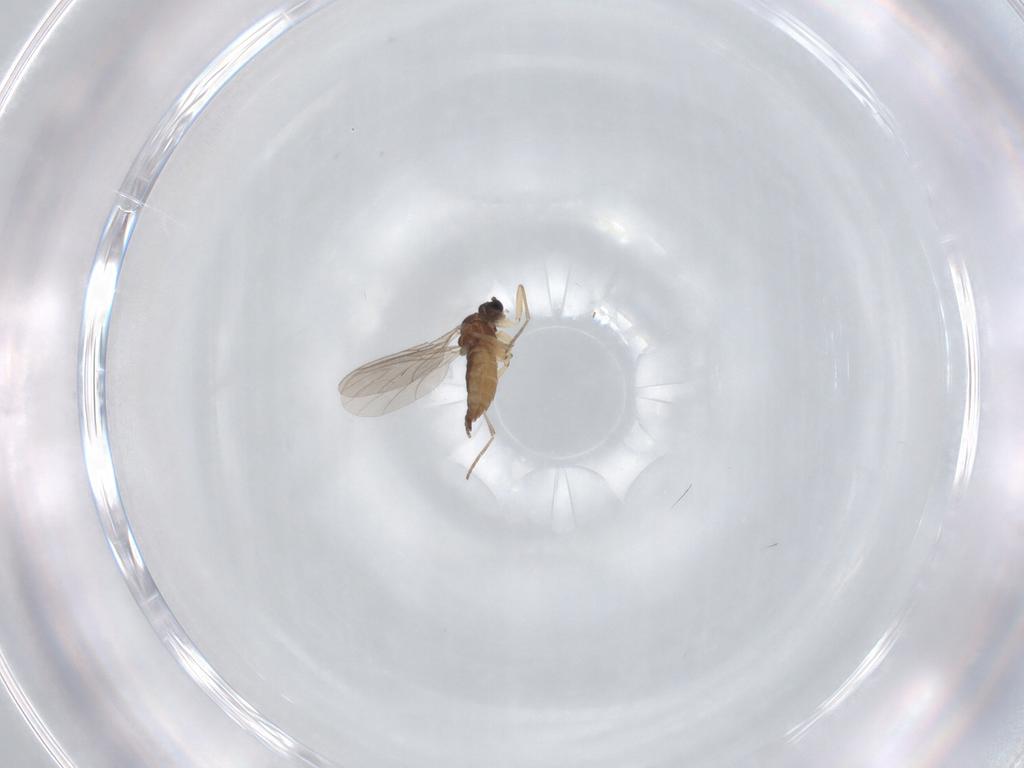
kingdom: Animalia
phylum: Arthropoda
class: Insecta
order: Diptera
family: Sciaridae
